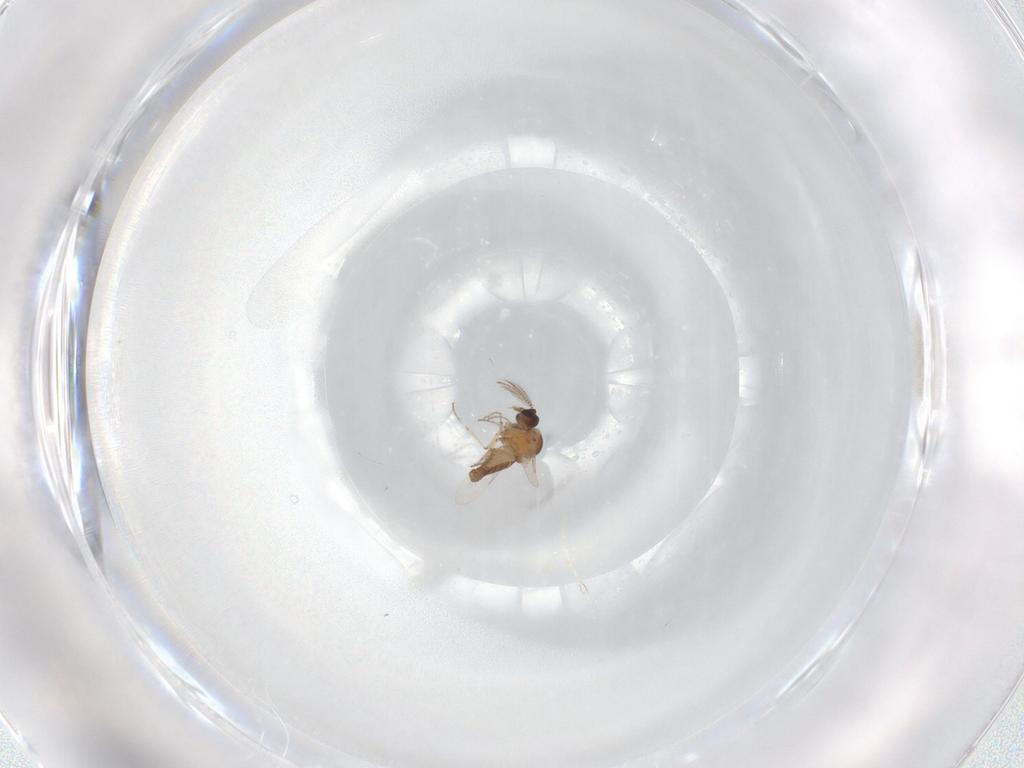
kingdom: Animalia
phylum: Arthropoda
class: Insecta
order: Diptera
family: Ceratopogonidae
